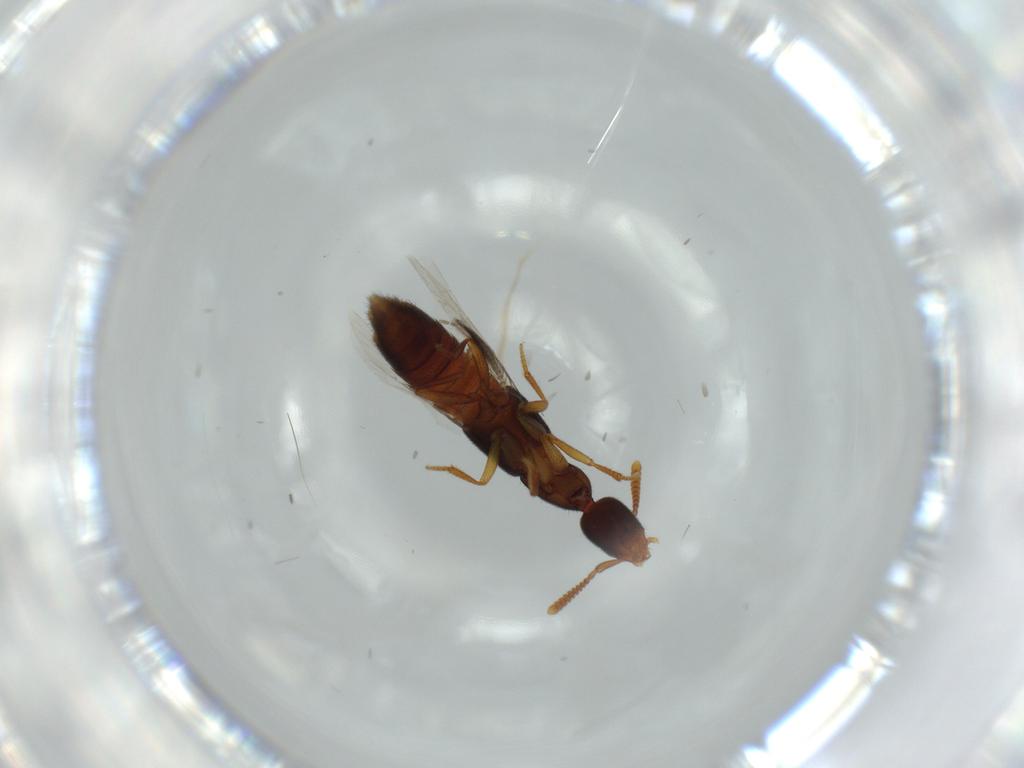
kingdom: Animalia
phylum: Arthropoda
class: Insecta
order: Coleoptera
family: Staphylinidae
